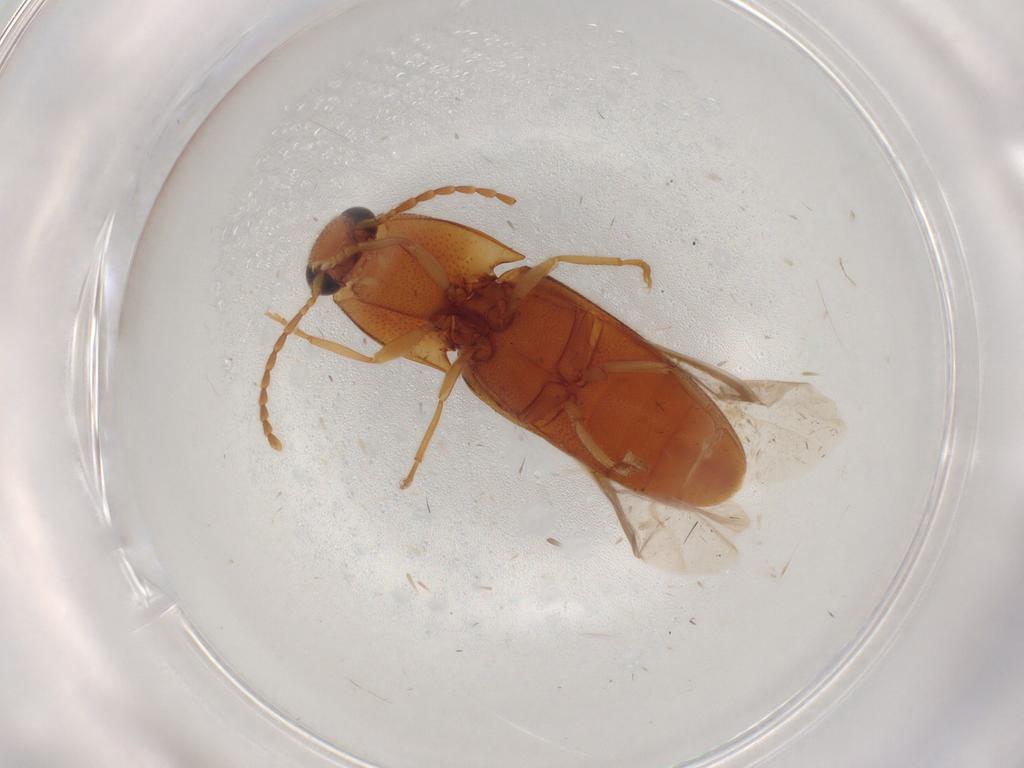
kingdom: Animalia
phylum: Arthropoda
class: Insecta
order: Coleoptera
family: Elateridae
